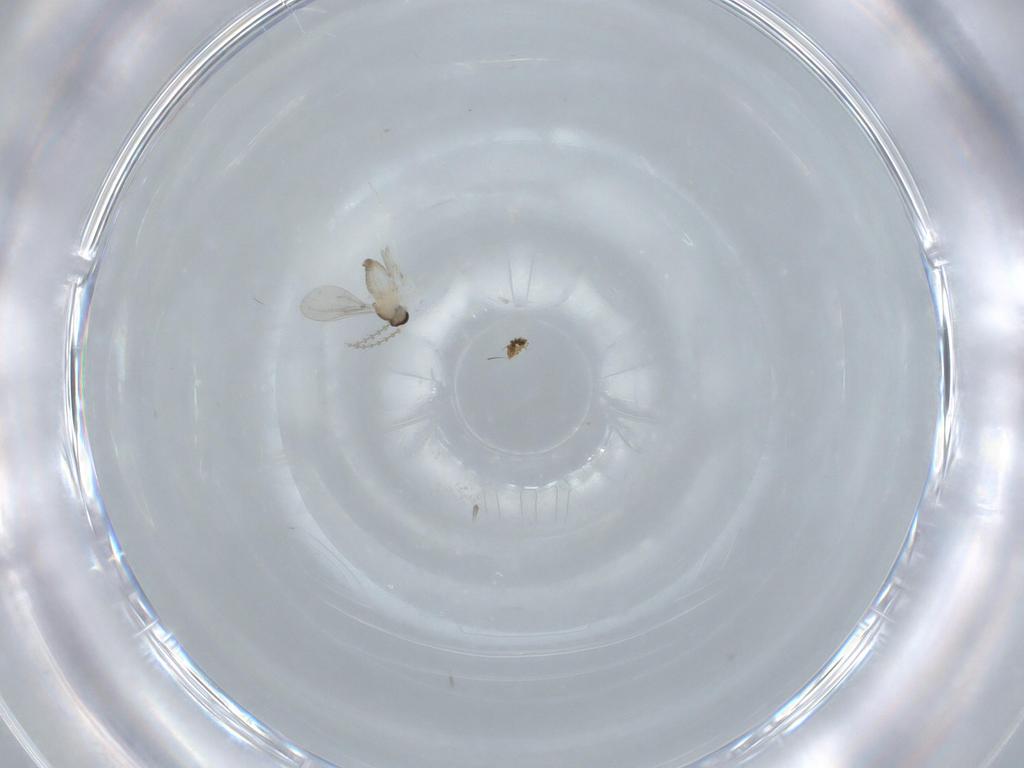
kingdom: Animalia
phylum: Arthropoda
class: Insecta
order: Diptera
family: Cecidomyiidae
